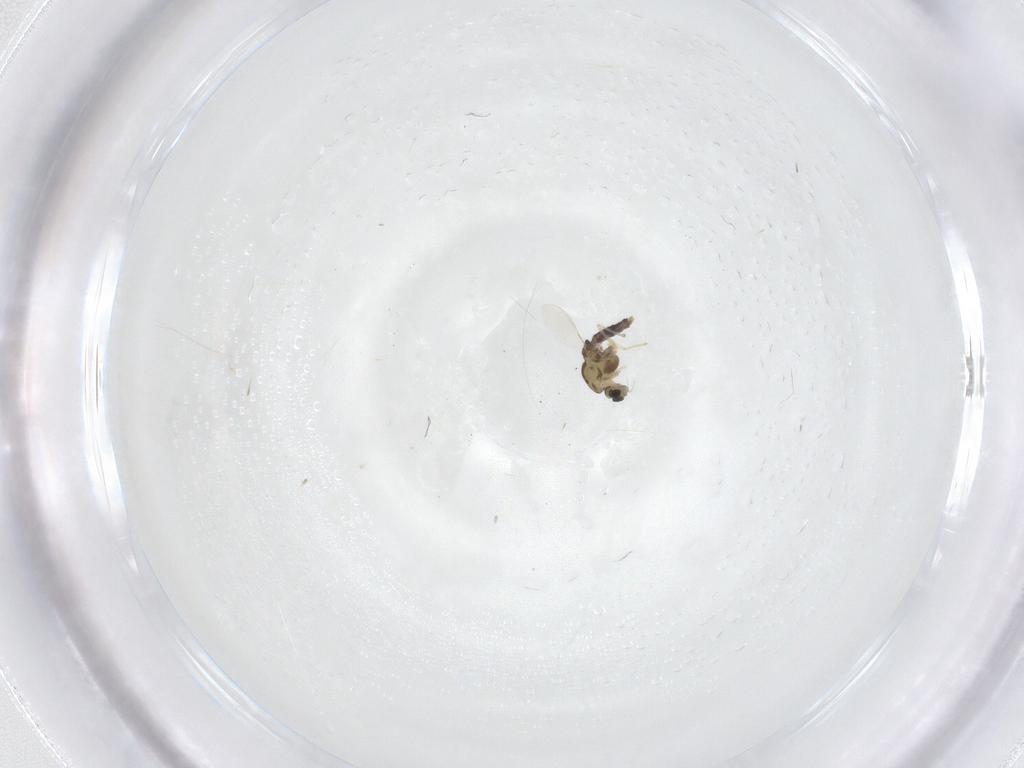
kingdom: Animalia
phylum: Arthropoda
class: Insecta
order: Diptera
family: Chironomidae
